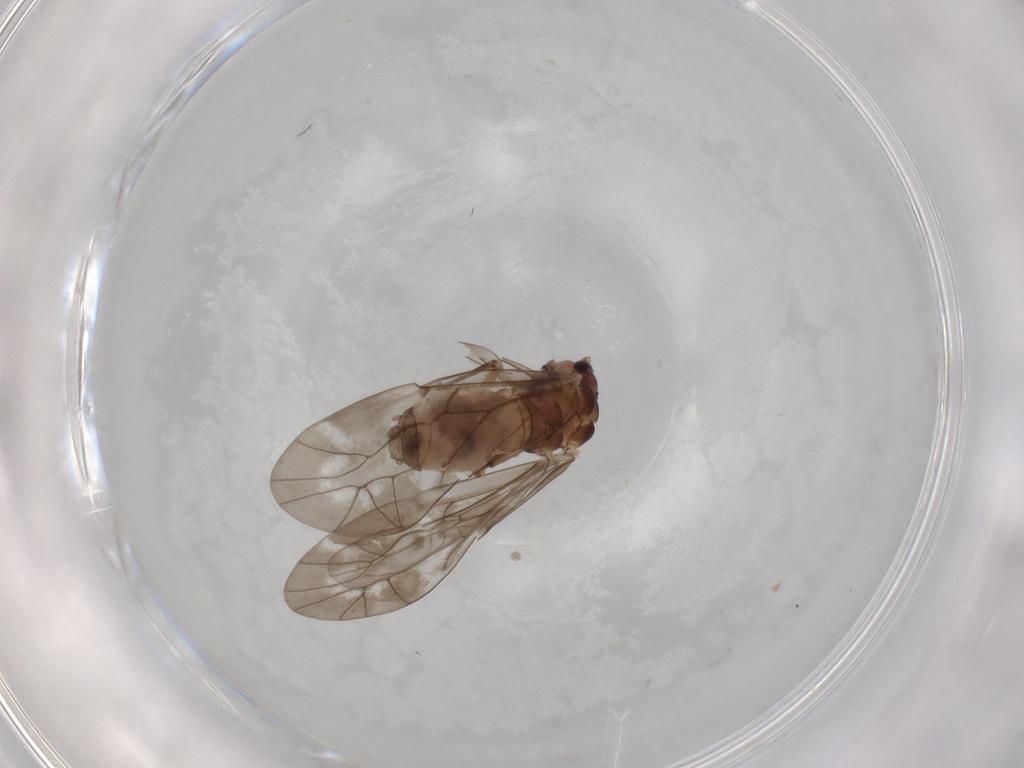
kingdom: Animalia
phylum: Arthropoda
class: Insecta
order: Psocodea
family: Peripsocidae
